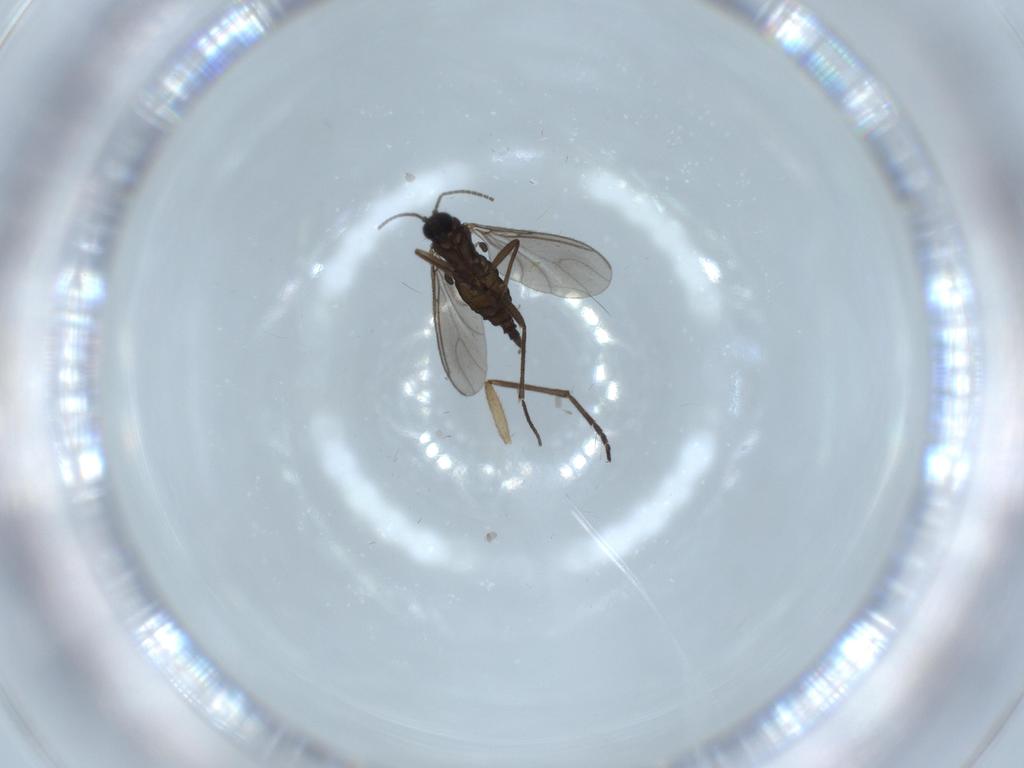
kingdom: Animalia
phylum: Arthropoda
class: Insecta
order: Diptera
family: Sciaridae
